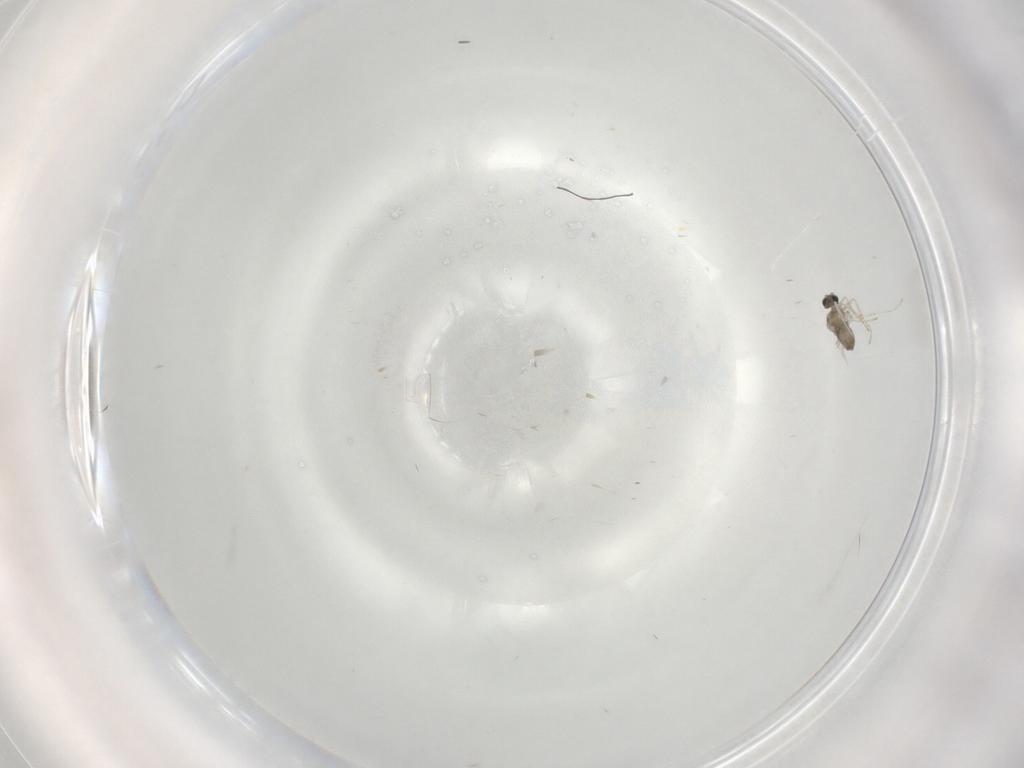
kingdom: Animalia
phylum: Arthropoda
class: Insecta
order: Diptera
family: Cecidomyiidae
